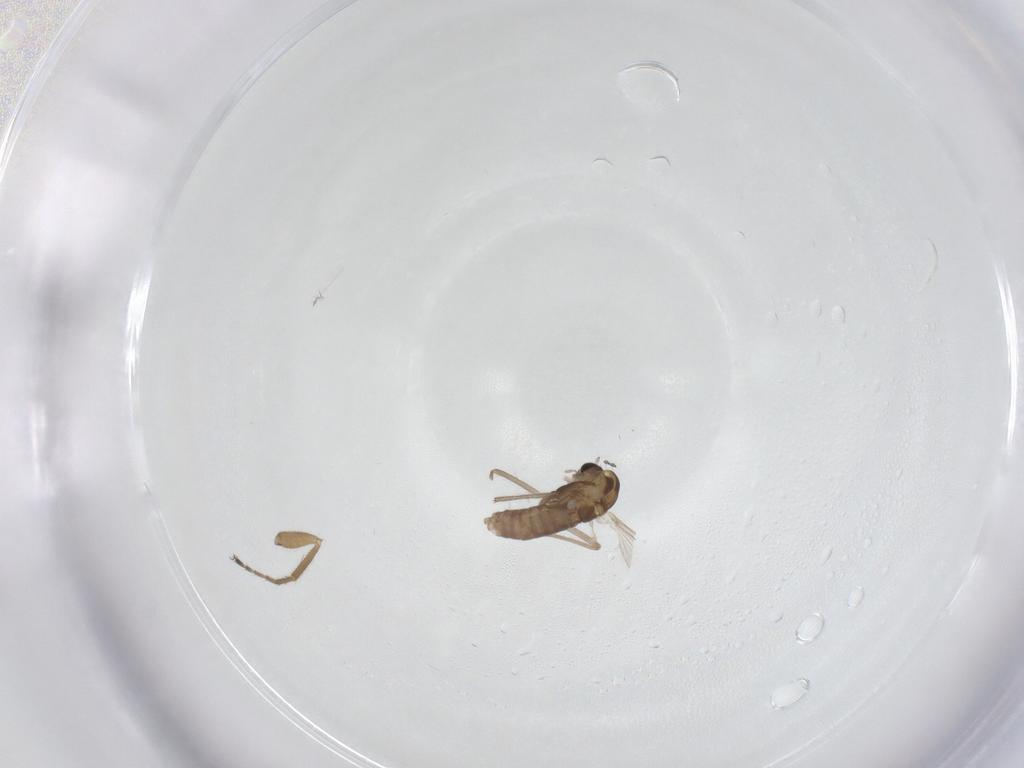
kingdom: Animalia
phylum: Arthropoda
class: Insecta
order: Diptera
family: Chironomidae
